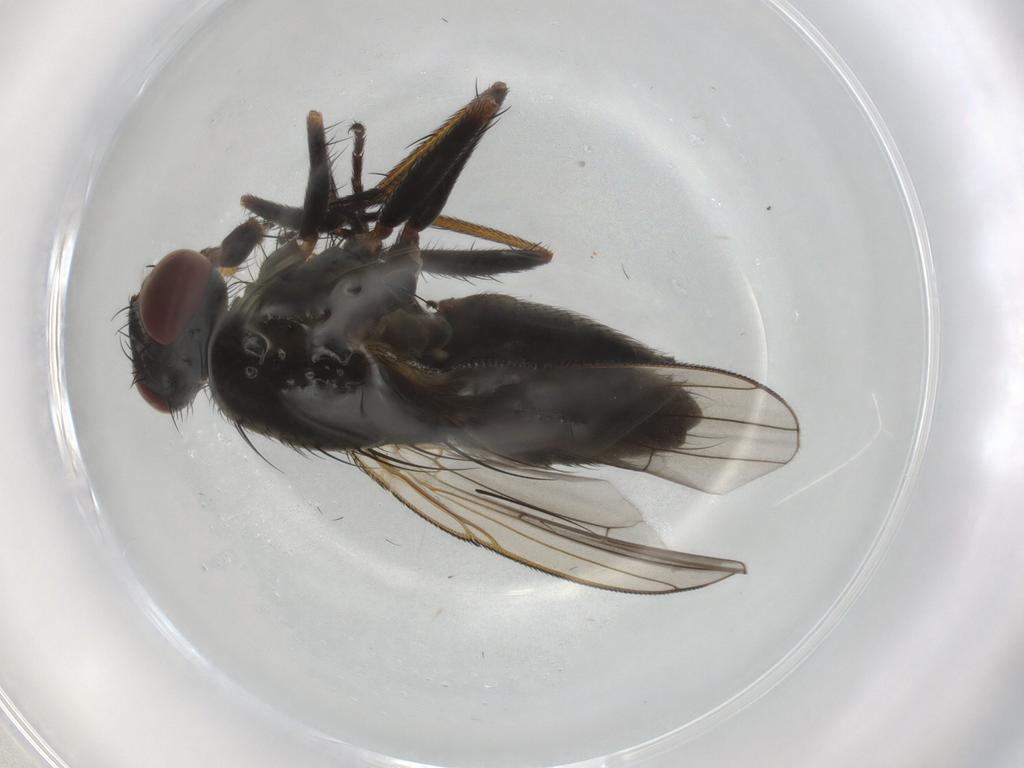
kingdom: Animalia
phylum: Arthropoda
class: Insecta
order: Diptera
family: Muscidae
